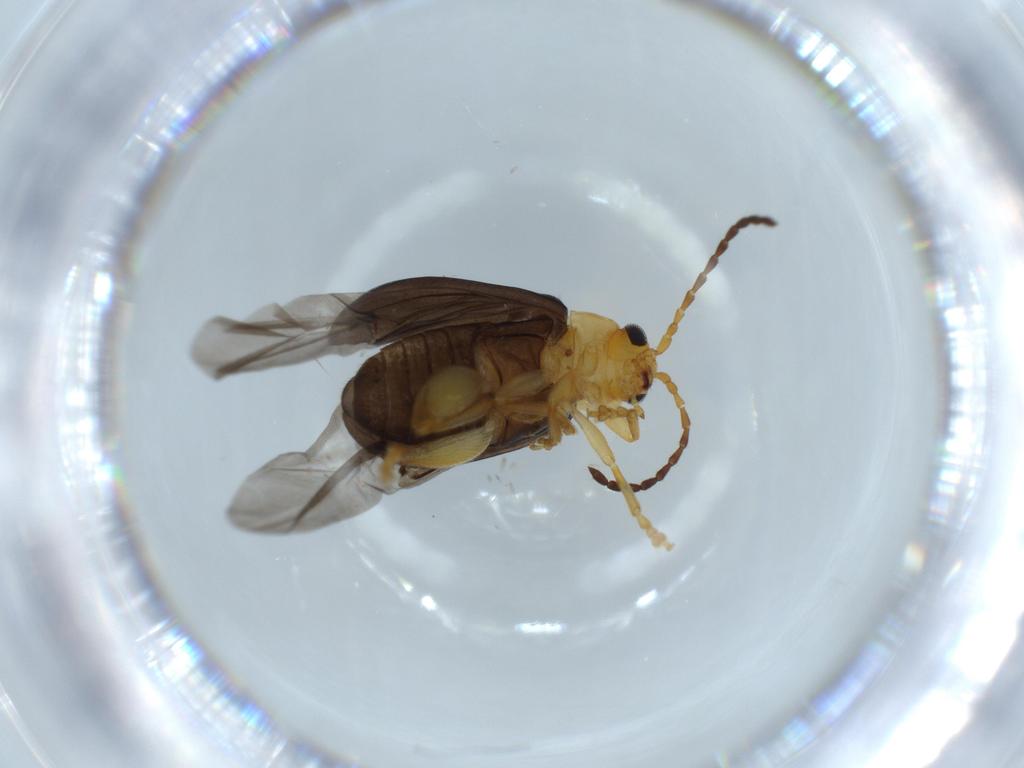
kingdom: Animalia
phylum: Arthropoda
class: Insecta
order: Coleoptera
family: Chrysomelidae
